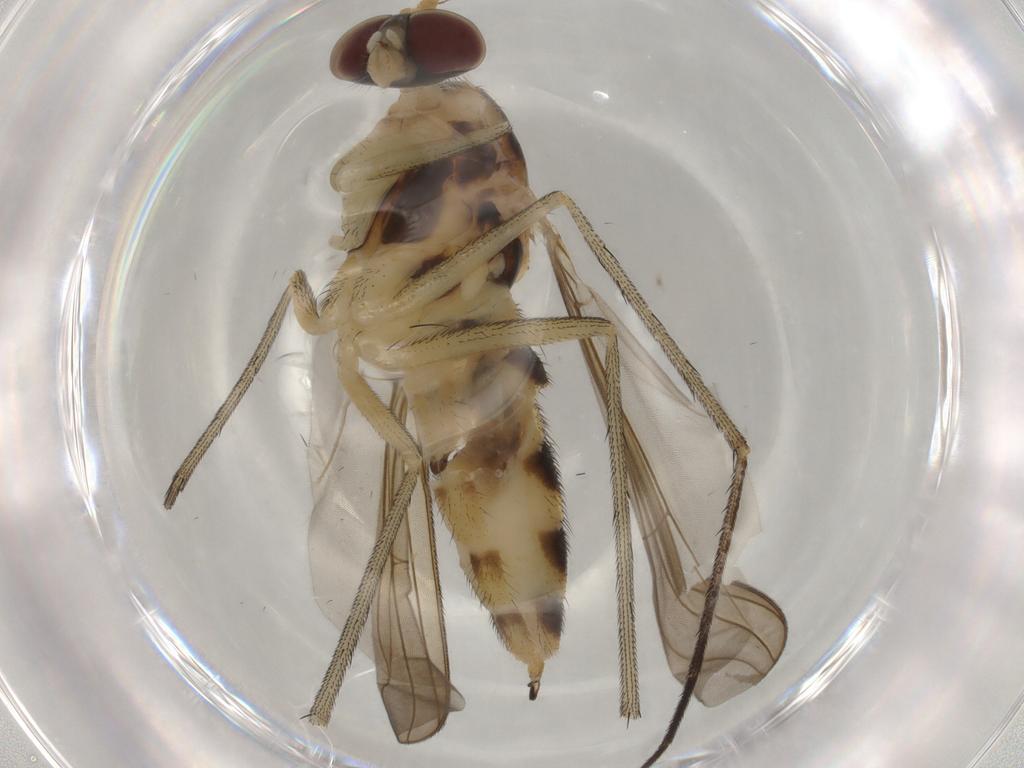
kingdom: Animalia
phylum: Arthropoda
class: Insecta
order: Diptera
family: Cecidomyiidae
